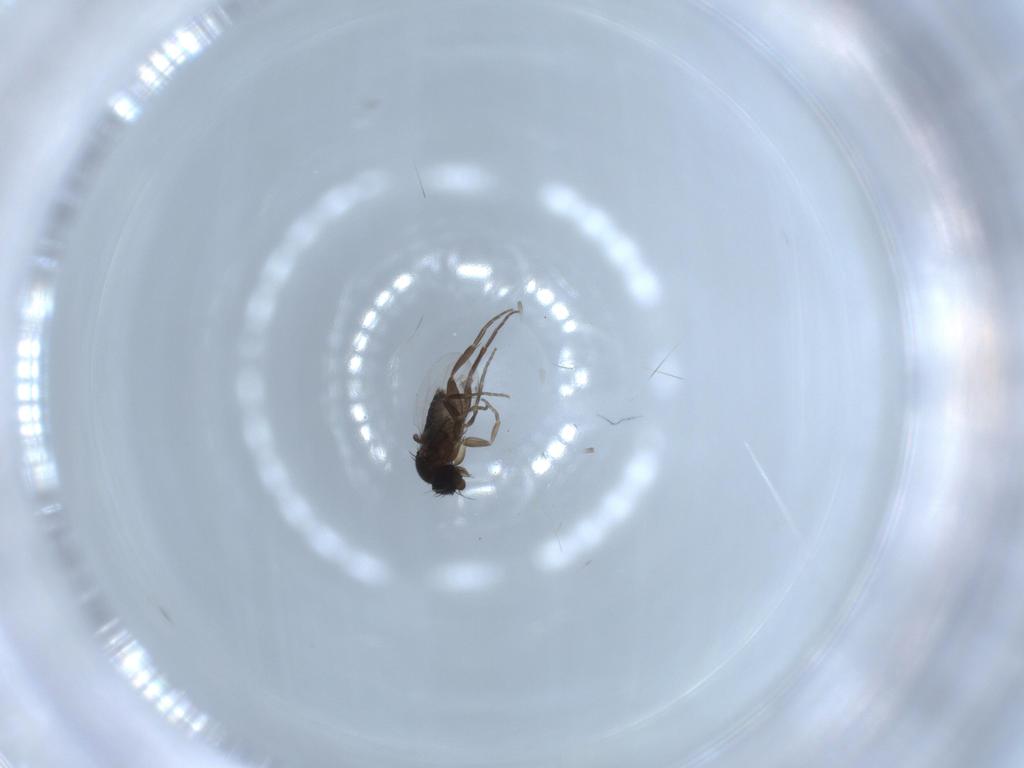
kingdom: Animalia
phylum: Arthropoda
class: Insecta
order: Diptera
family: Phoridae
